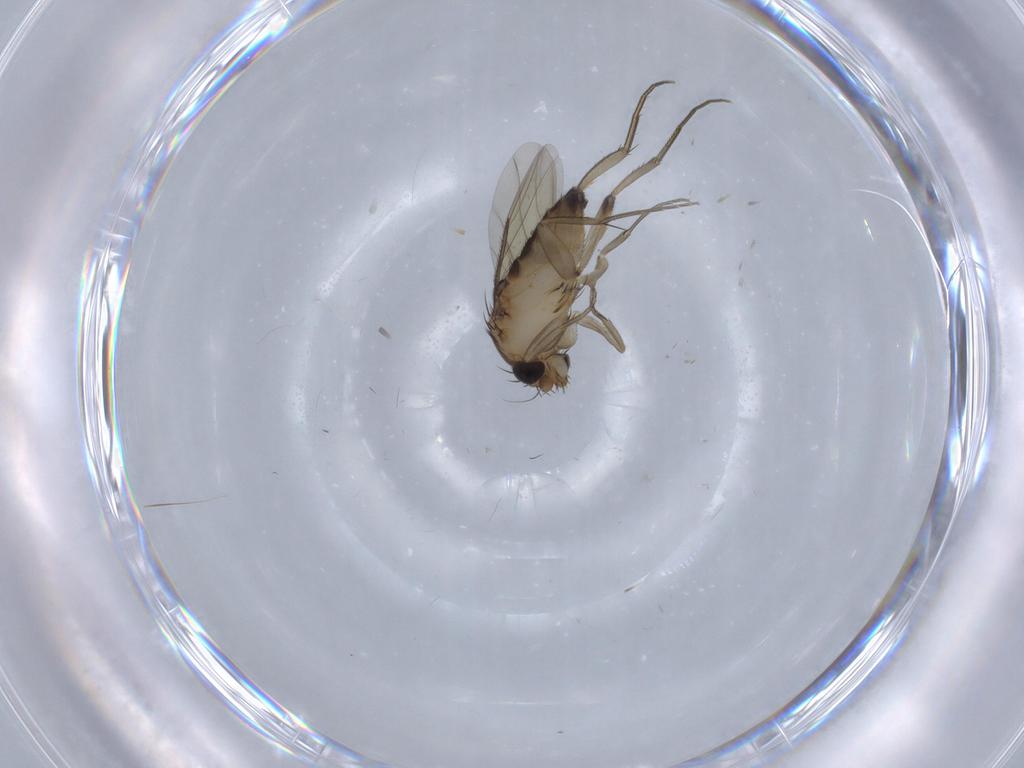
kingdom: Animalia
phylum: Arthropoda
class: Insecta
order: Diptera
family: Phoridae
